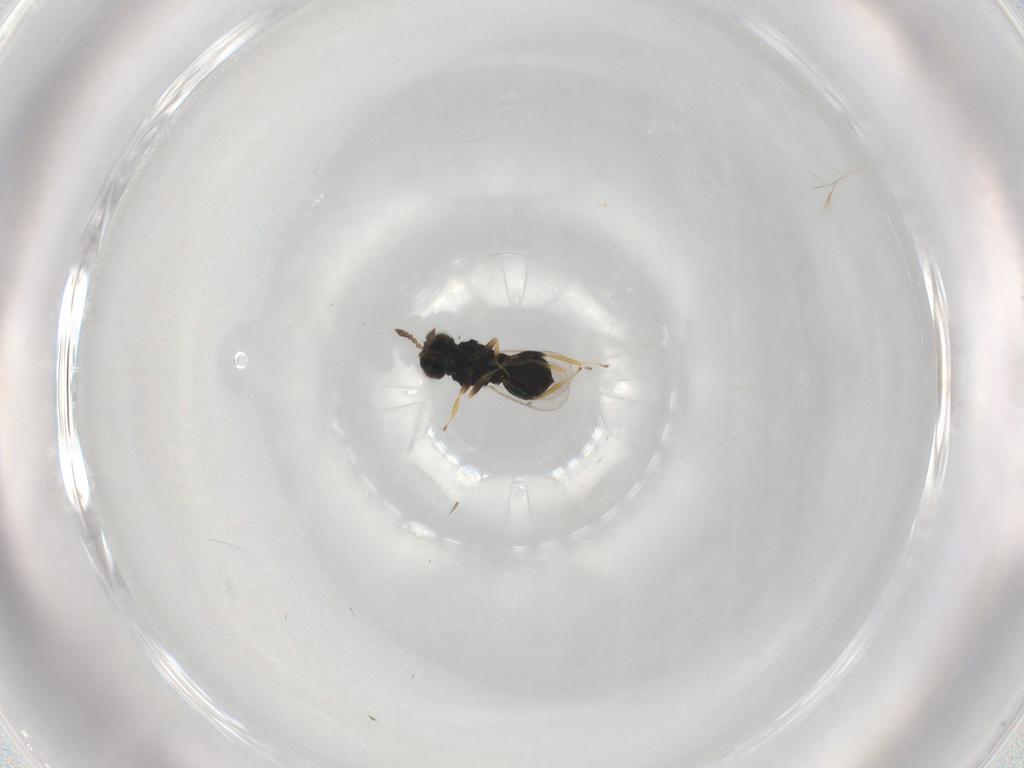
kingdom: Animalia
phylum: Arthropoda
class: Insecta
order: Hymenoptera
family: Eulophidae
